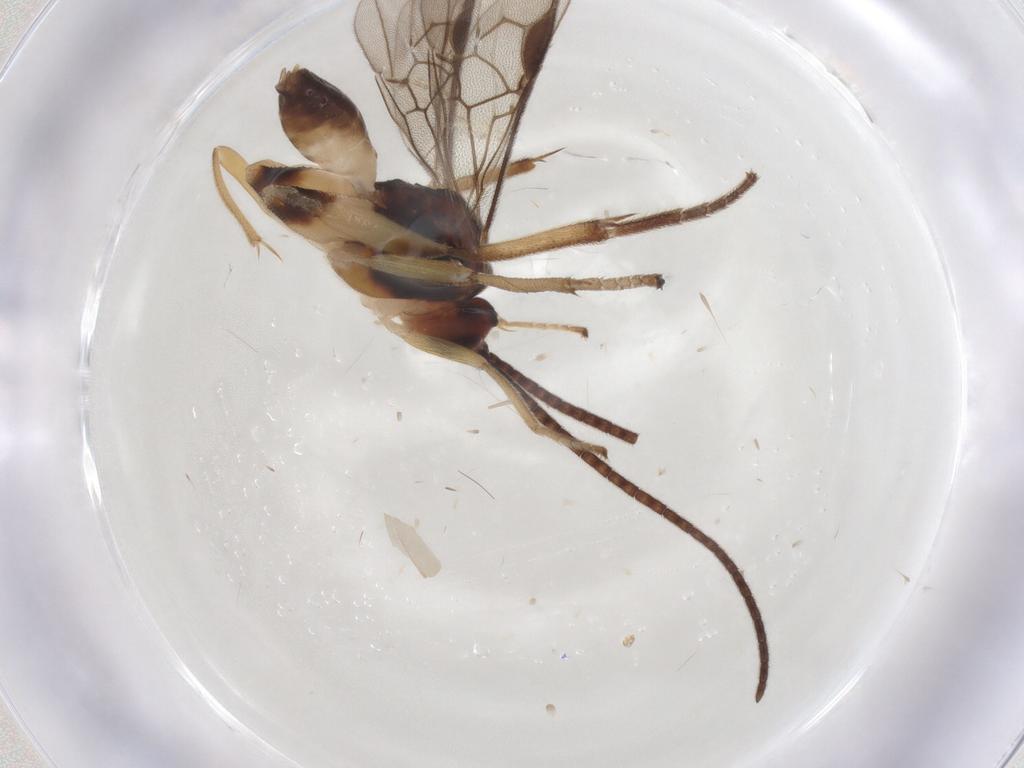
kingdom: Animalia
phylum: Arthropoda
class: Insecta
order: Hymenoptera
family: Braconidae
